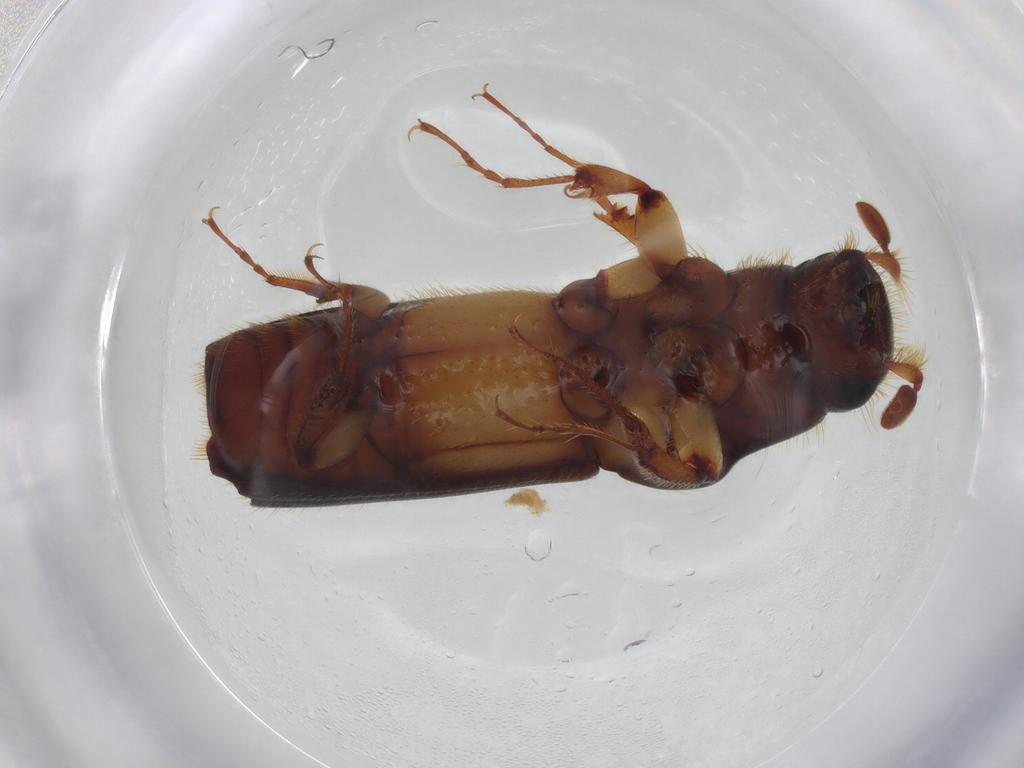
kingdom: Animalia
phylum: Arthropoda
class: Insecta
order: Coleoptera
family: Curculionidae
